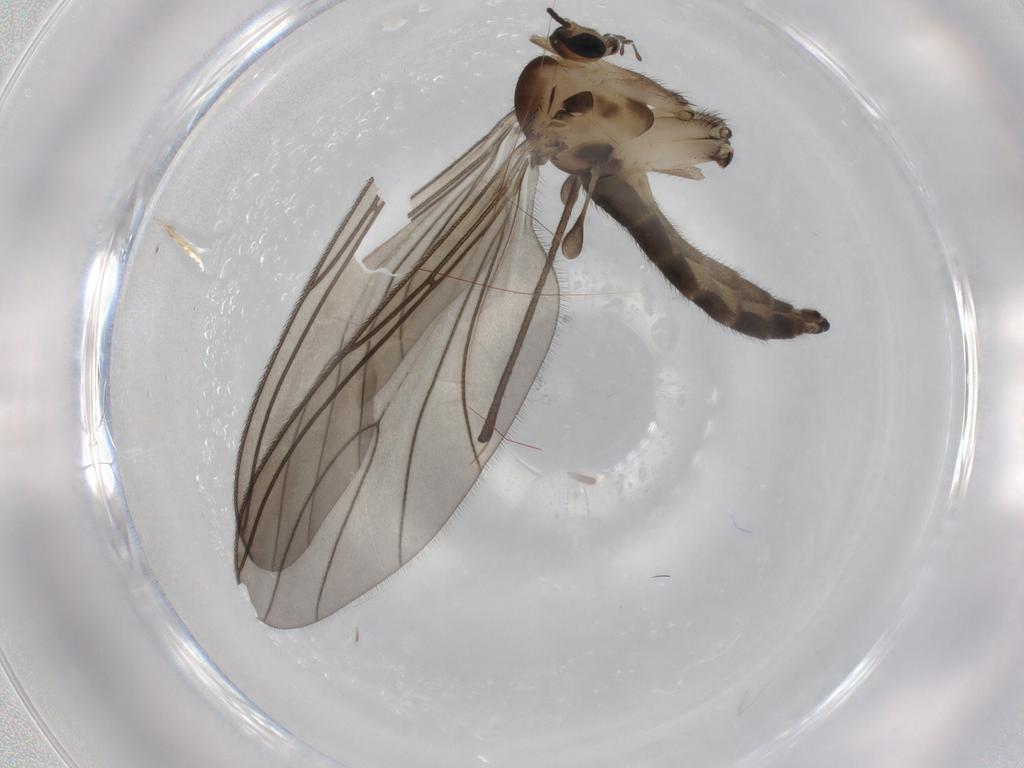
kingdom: Animalia
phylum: Arthropoda
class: Insecta
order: Diptera
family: Sciaridae
